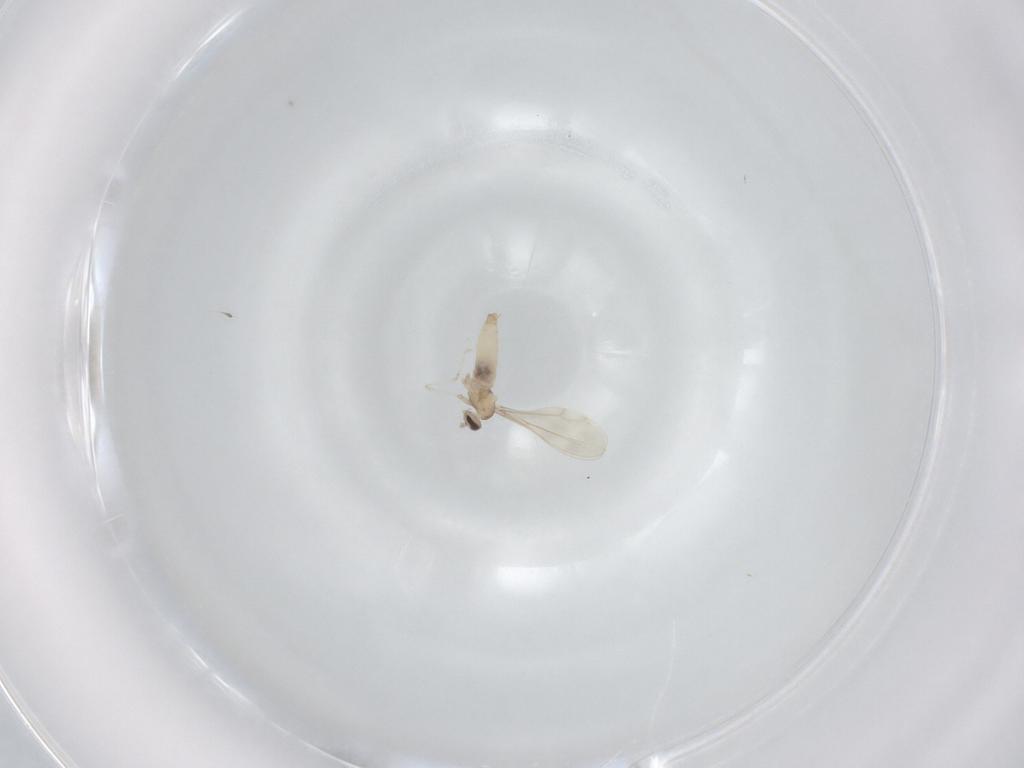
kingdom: Animalia
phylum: Arthropoda
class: Insecta
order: Diptera
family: Cecidomyiidae
